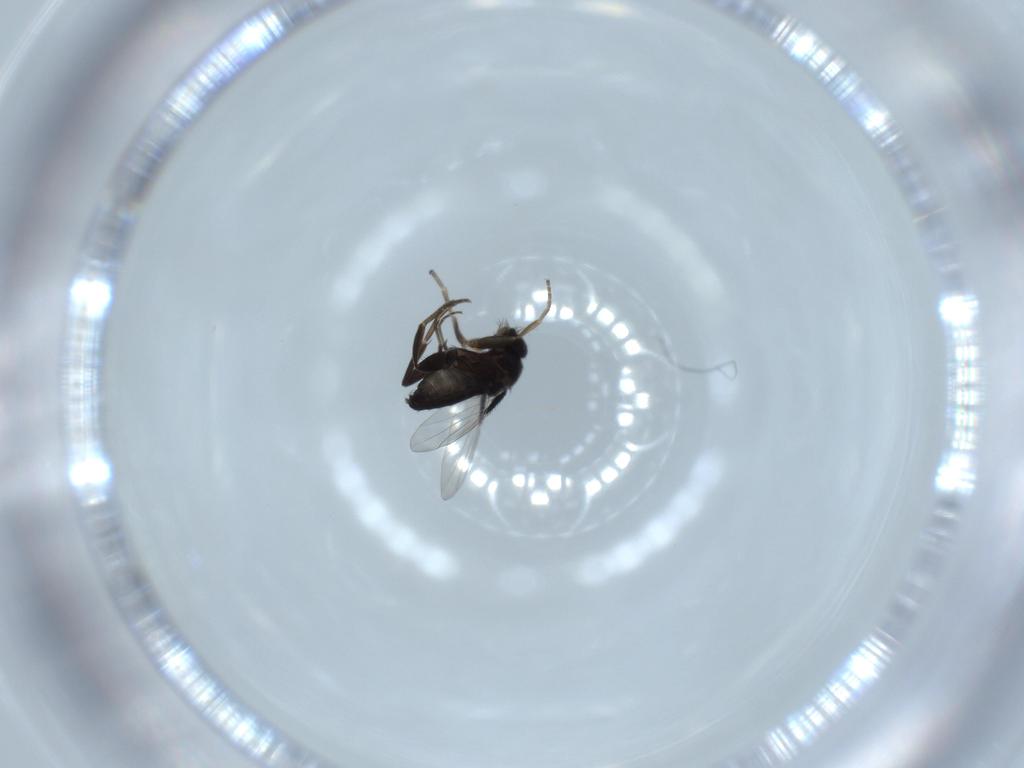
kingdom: Animalia
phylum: Arthropoda
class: Insecta
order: Diptera
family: Phoridae
